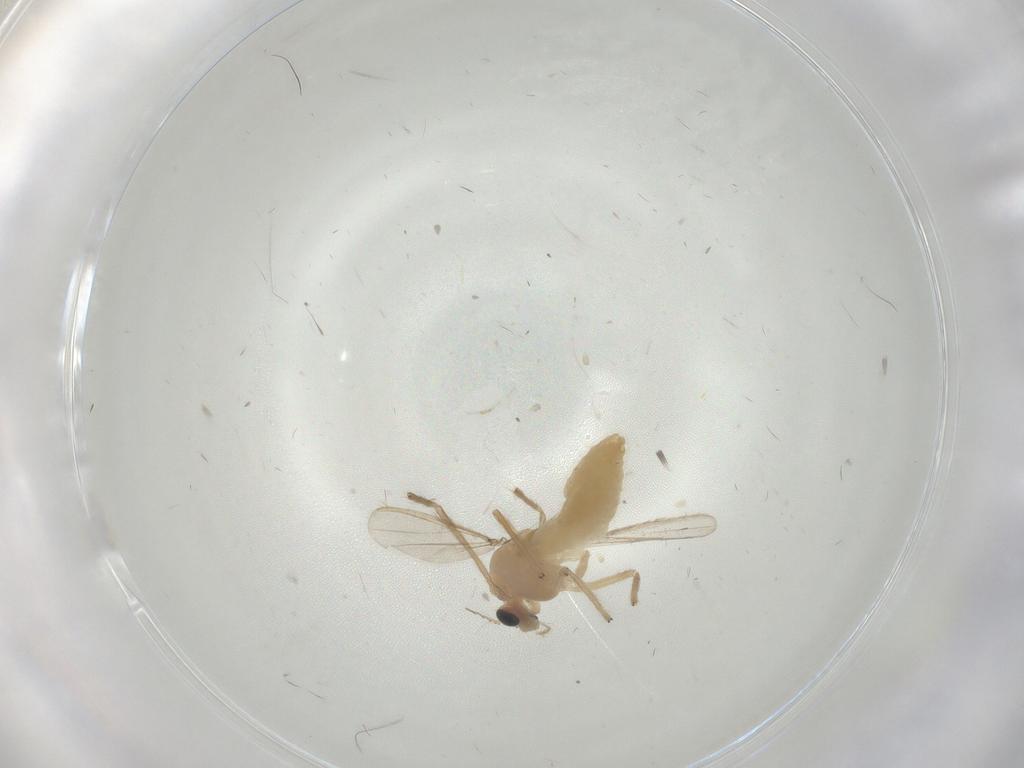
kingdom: Animalia
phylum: Arthropoda
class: Insecta
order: Diptera
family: Chironomidae
